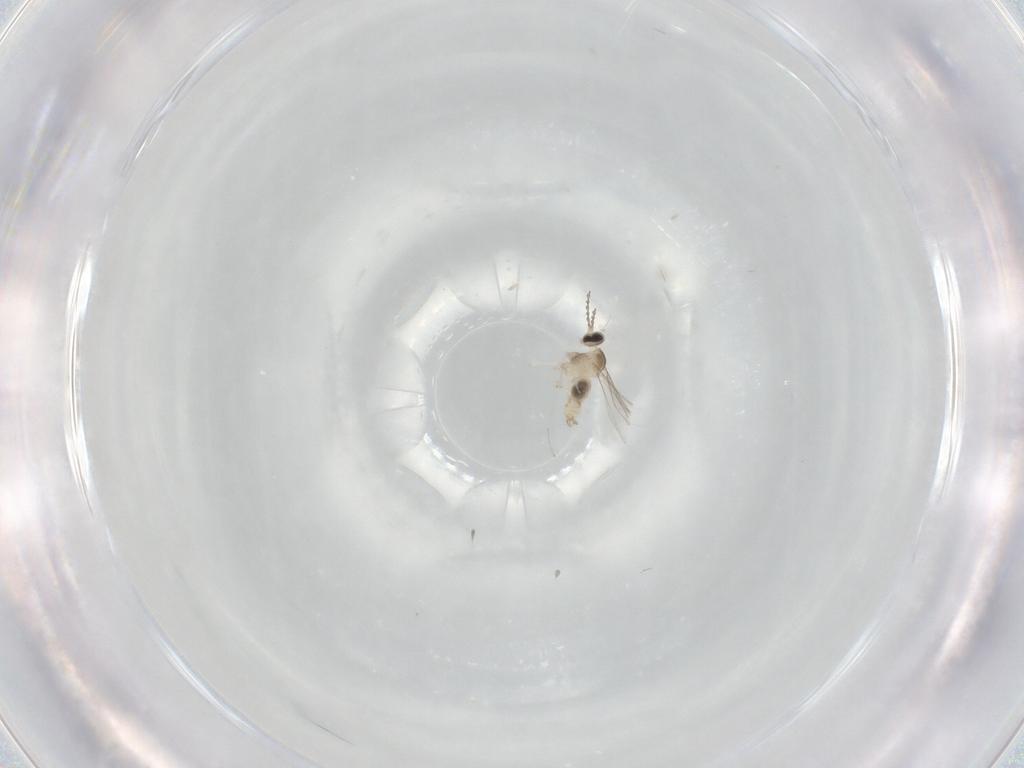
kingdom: Animalia
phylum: Arthropoda
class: Insecta
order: Diptera
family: Cecidomyiidae
